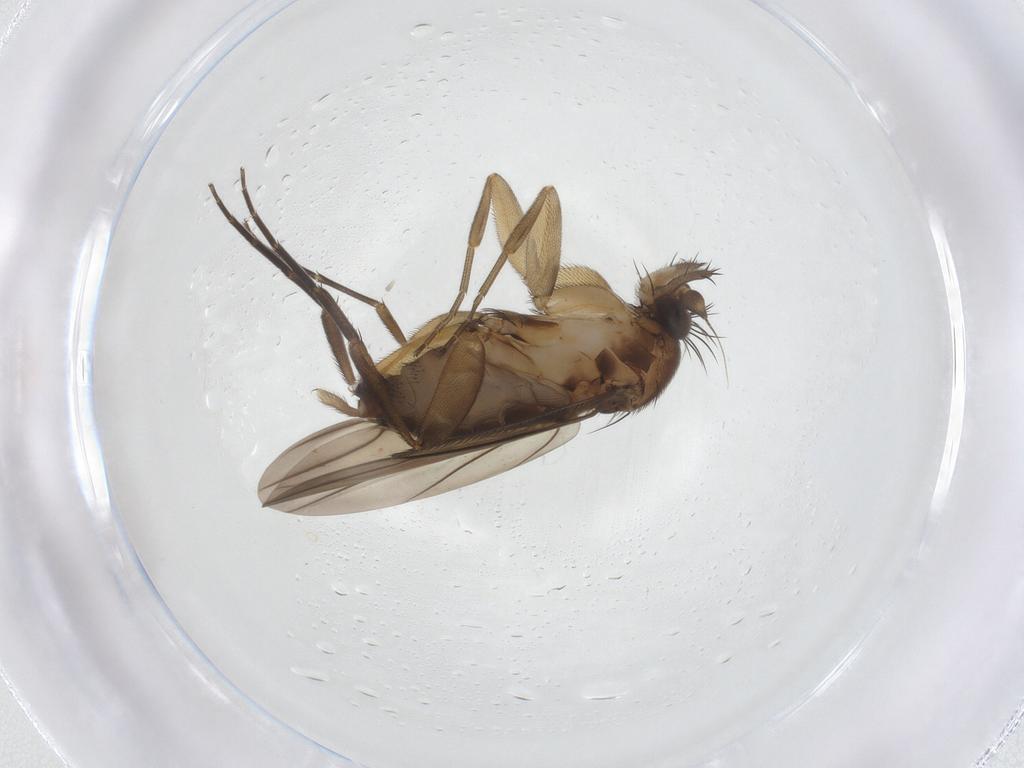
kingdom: Animalia
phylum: Arthropoda
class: Insecta
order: Diptera
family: Phoridae
